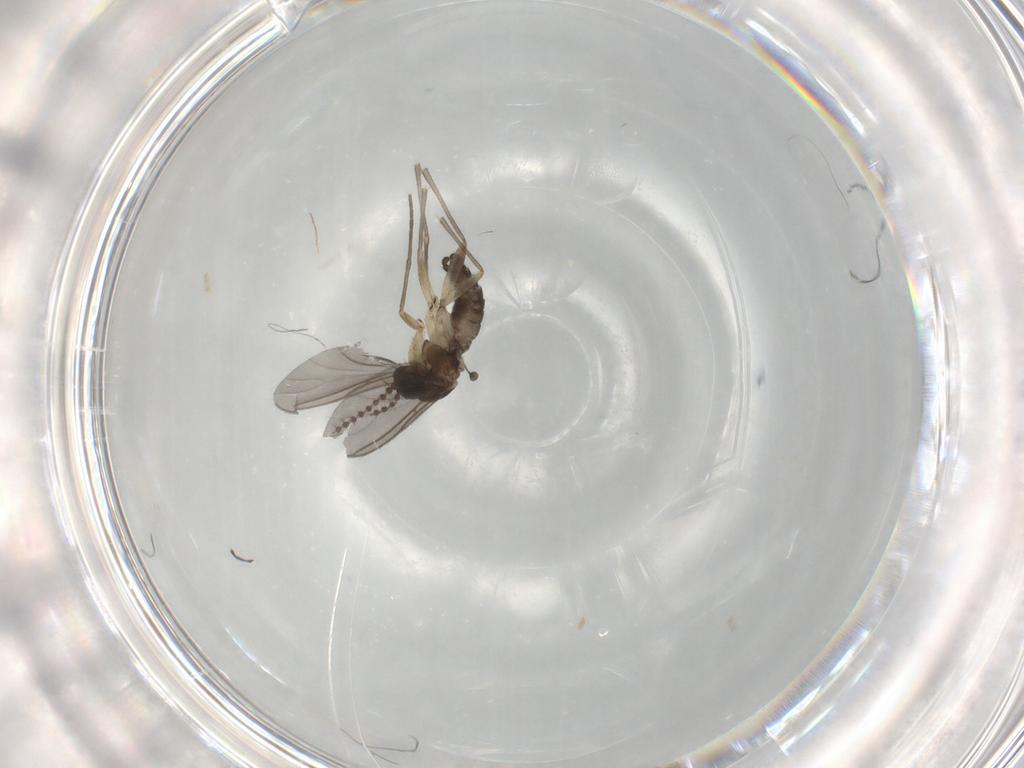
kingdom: Animalia
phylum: Arthropoda
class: Insecta
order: Diptera
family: Sciaridae
